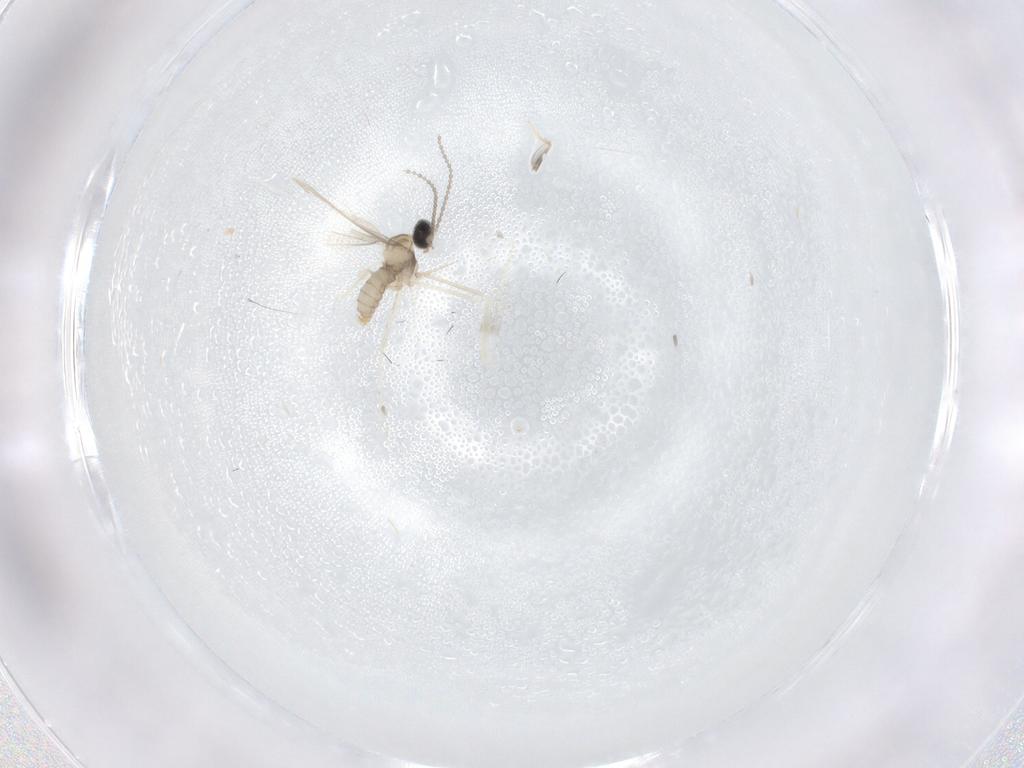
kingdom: Animalia
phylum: Arthropoda
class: Insecta
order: Diptera
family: Cecidomyiidae
